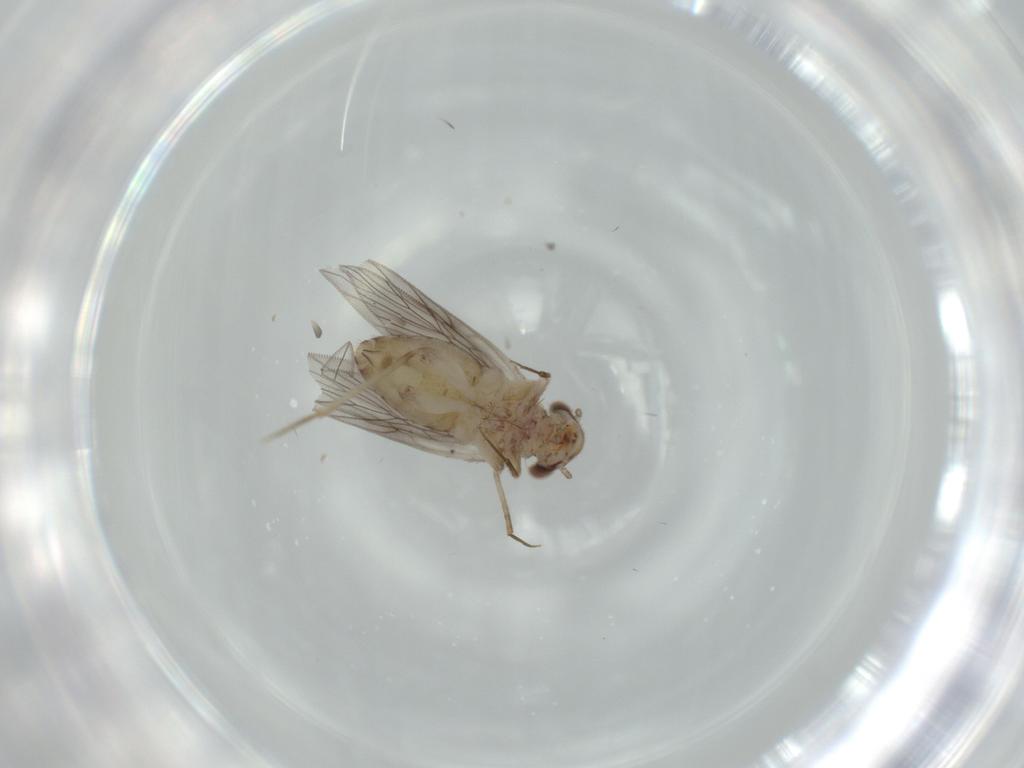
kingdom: Animalia
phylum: Arthropoda
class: Insecta
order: Psocodea
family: Lepidopsocidae
